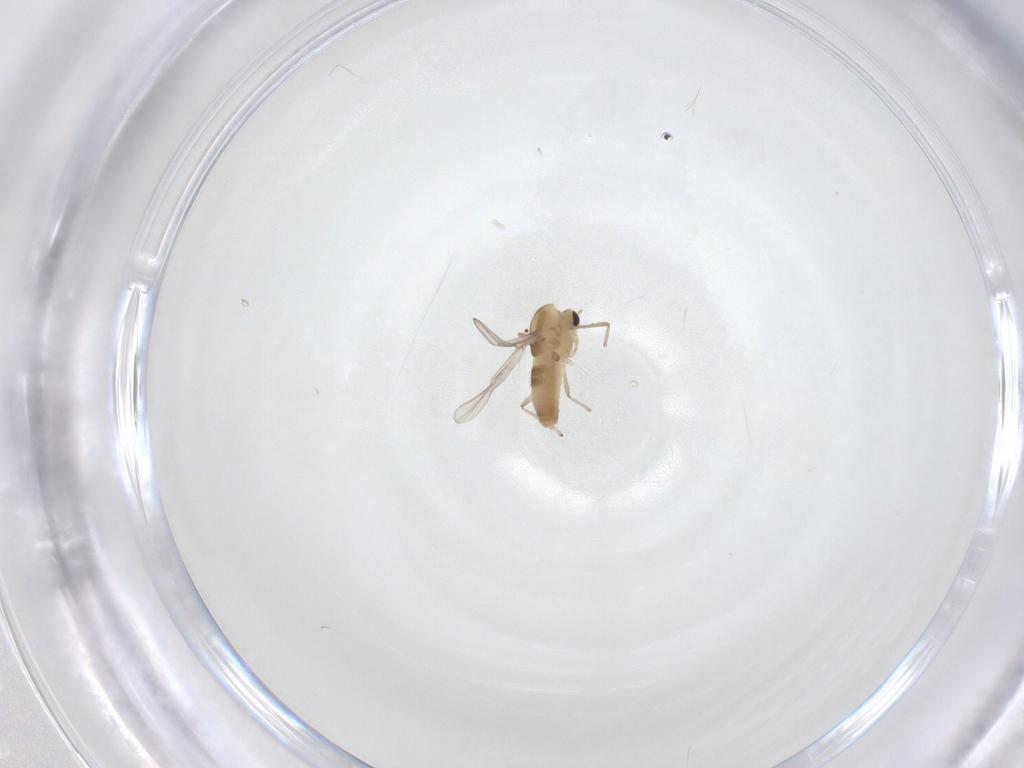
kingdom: Animalia
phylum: Arthropoda
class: Insecta
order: Diptera
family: Chironomidae
